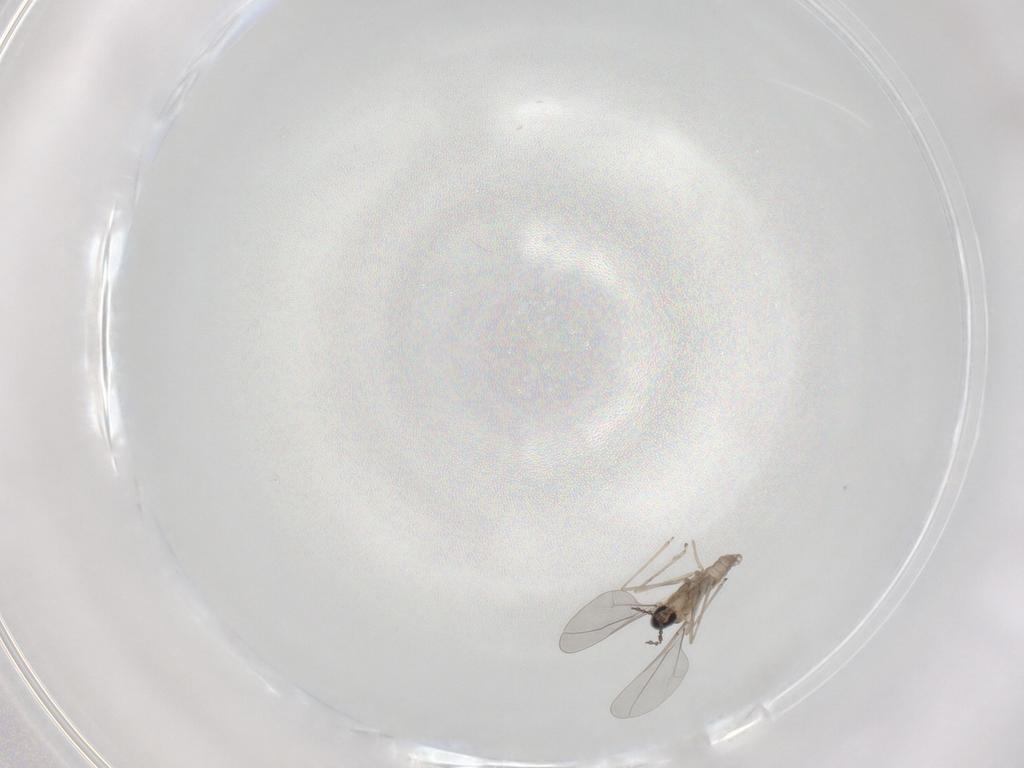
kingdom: Animalia
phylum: Arthropoda
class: Insecta
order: Diptera
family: Cecidomyiidae
